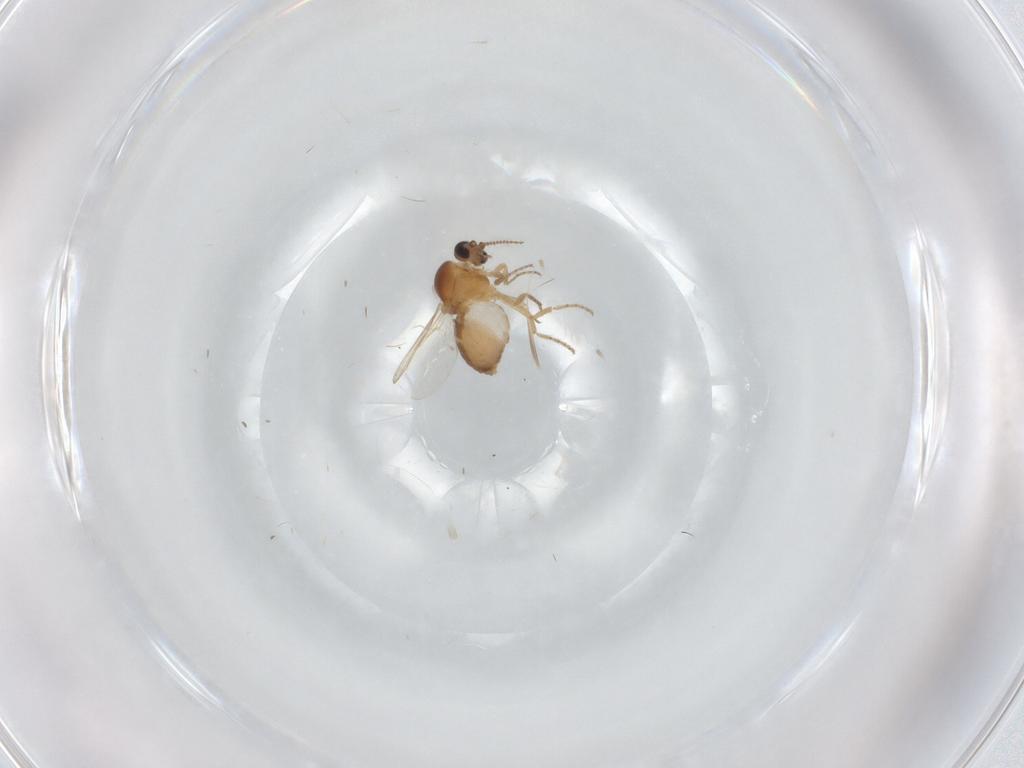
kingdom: Animalia
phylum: Arthropoda
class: Insecta
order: Diptera
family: Ceratopogonidae
